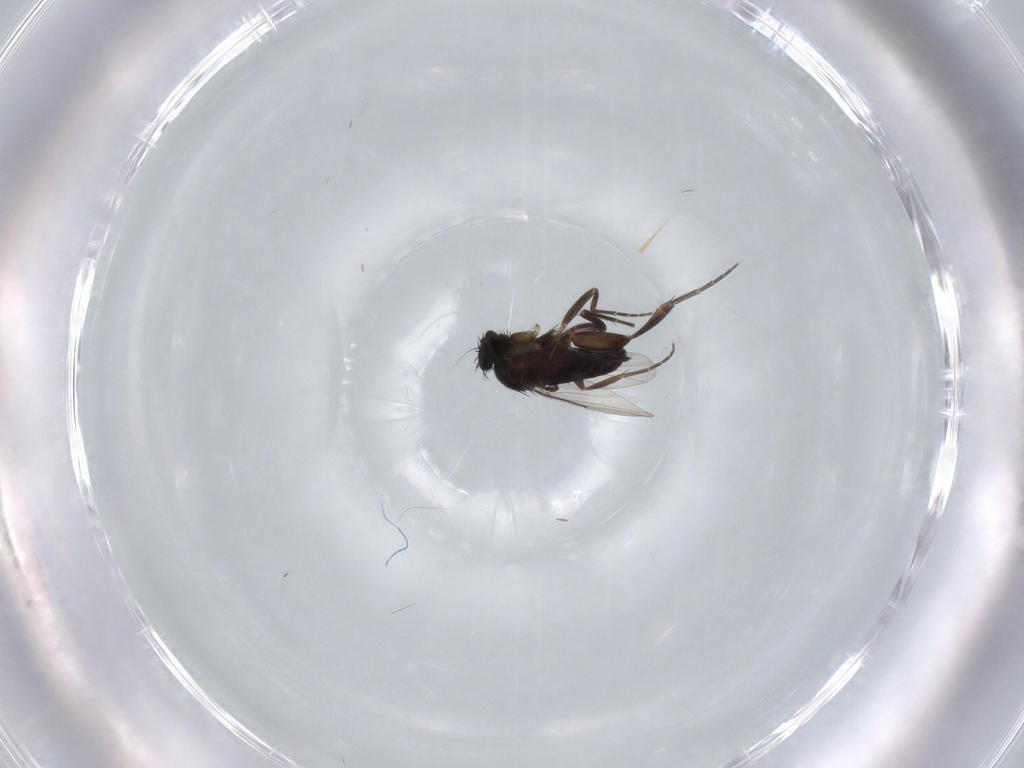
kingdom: Animalia
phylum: Arthropoda
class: Insecta
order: Diptera
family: Phoridae
